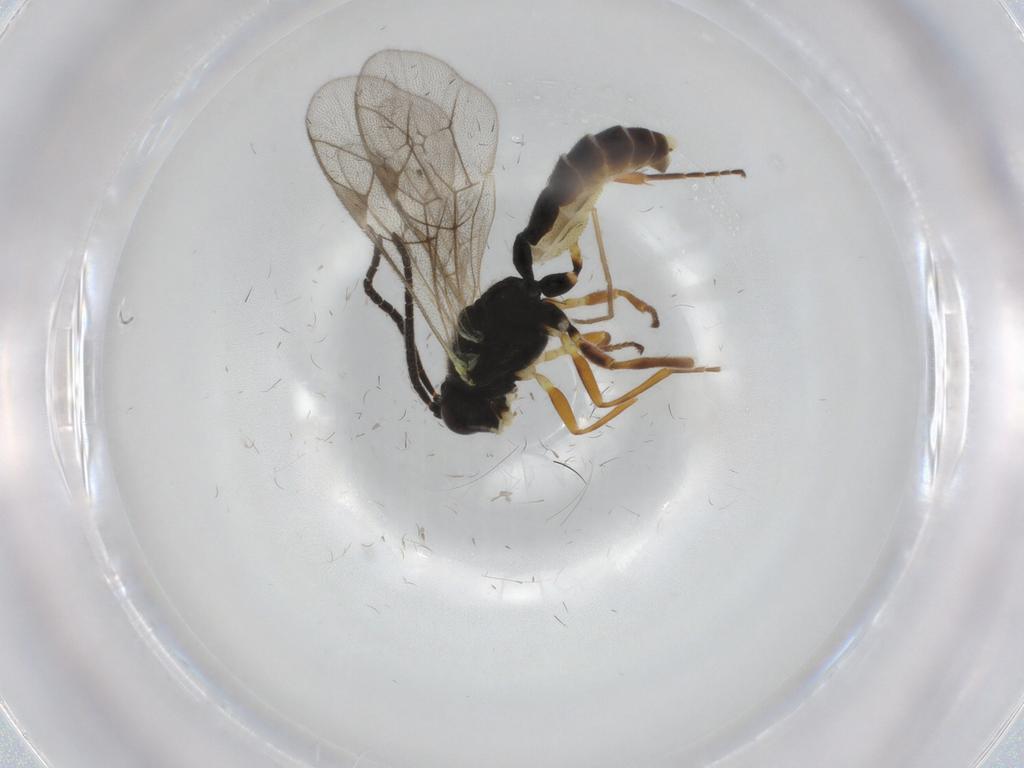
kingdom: Animalia
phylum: Arthropoda
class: Insecta
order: Hymenoptera
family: Ichneumonidae
